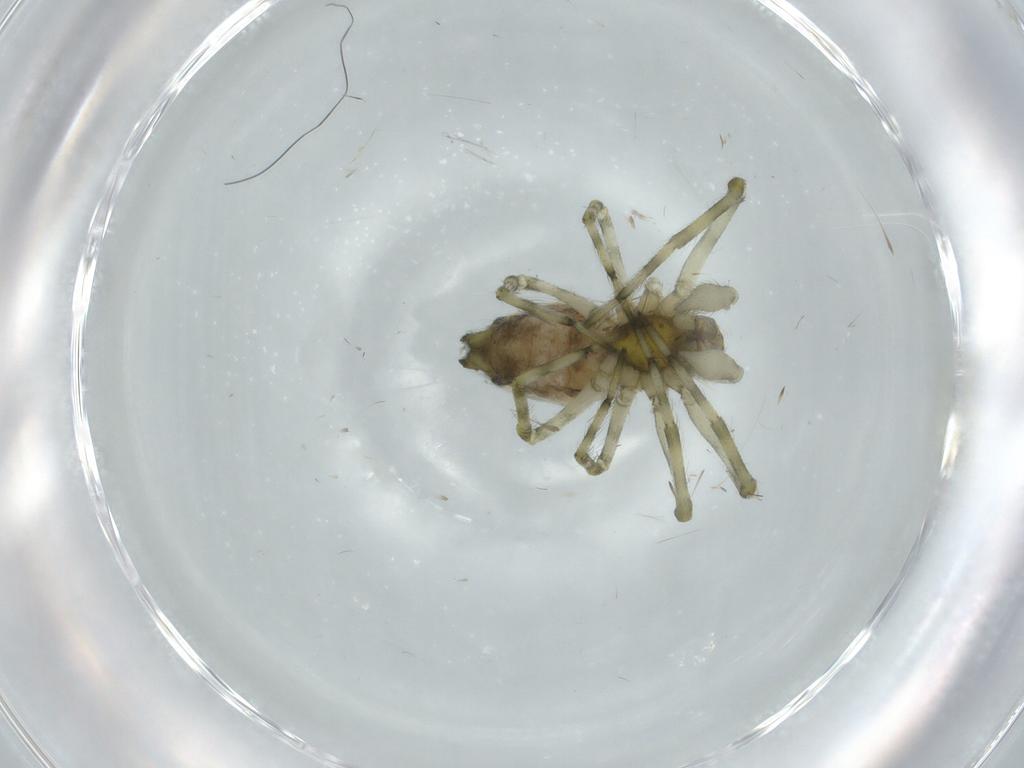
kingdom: Animalia
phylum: Arthropoda
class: Arachnida
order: Araneae
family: Dictynidae
